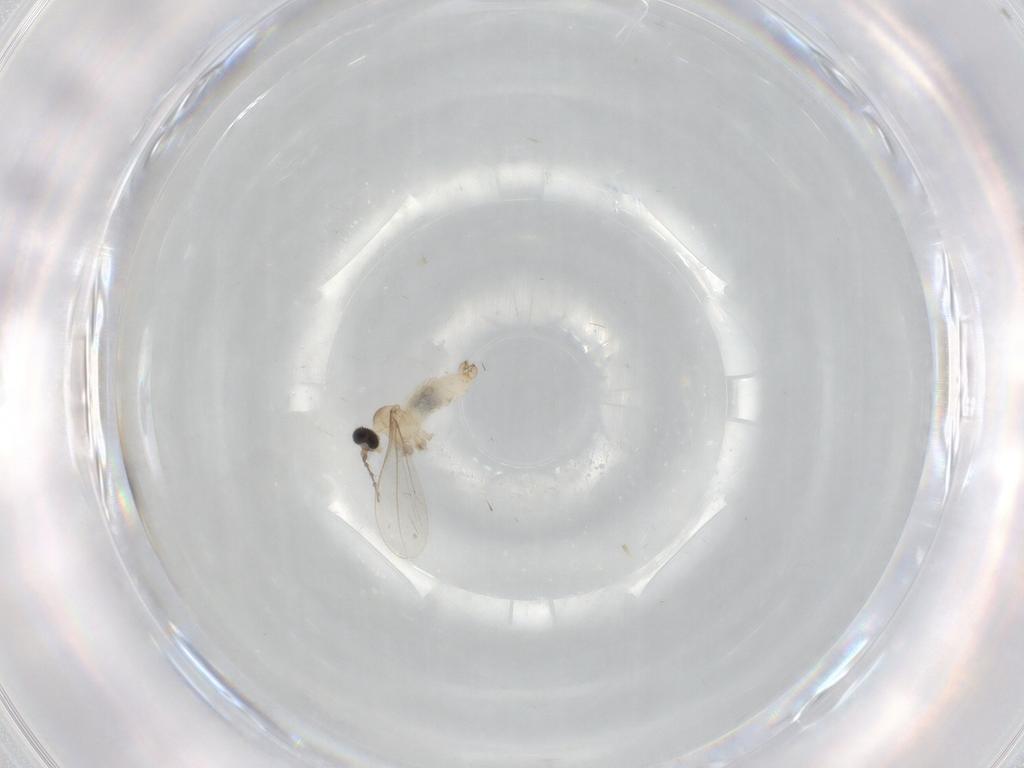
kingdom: Animalia
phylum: Arthropoda
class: Insecta
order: Diptera
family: Cecidomyiidae
